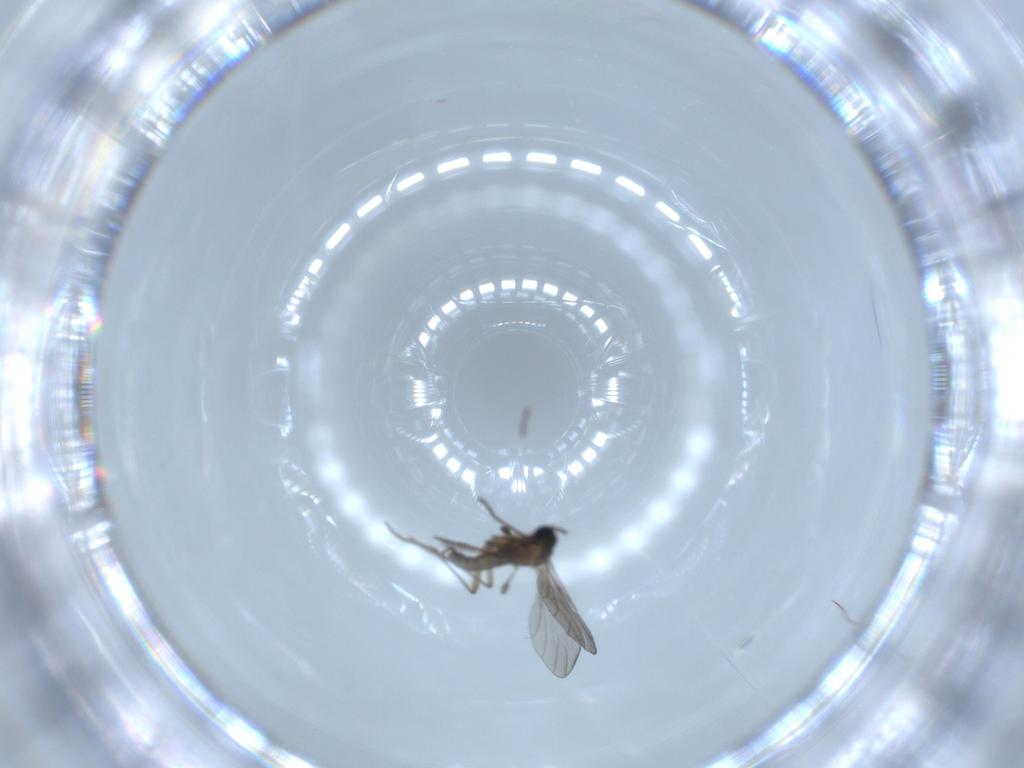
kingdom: Animalia
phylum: Arthropoda
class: Insecta
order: Diptera
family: Sciaridae
